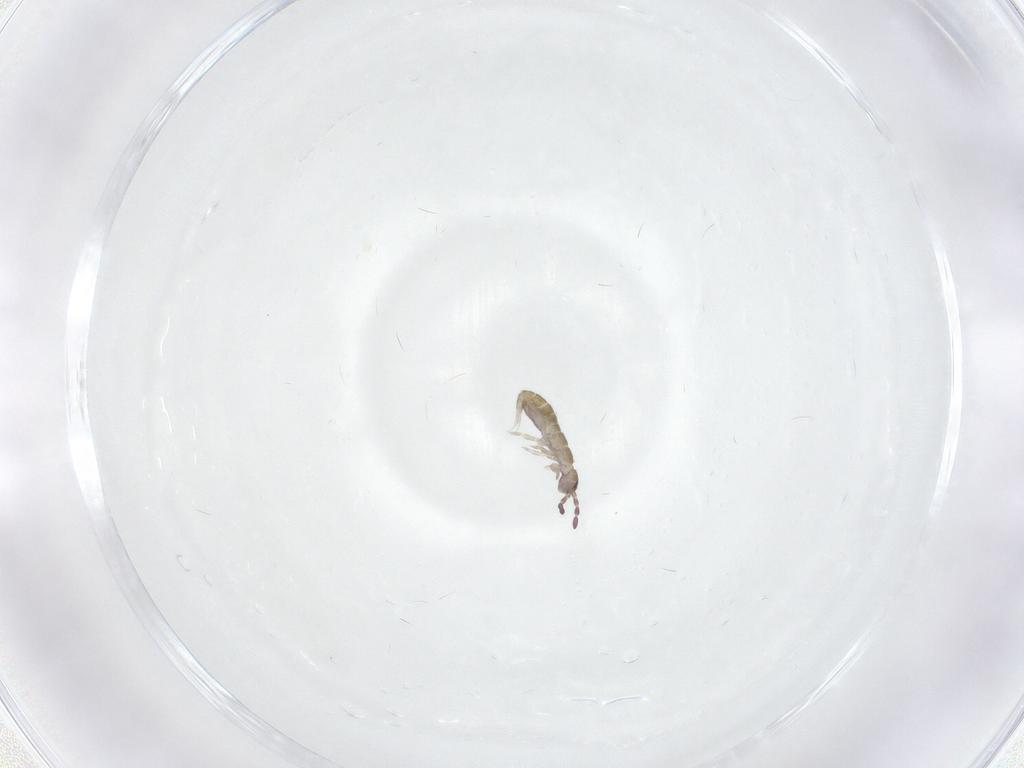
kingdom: Animalia
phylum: Arthropoda
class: Collembola
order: Entomobryomorpha
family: Entomobryidae
